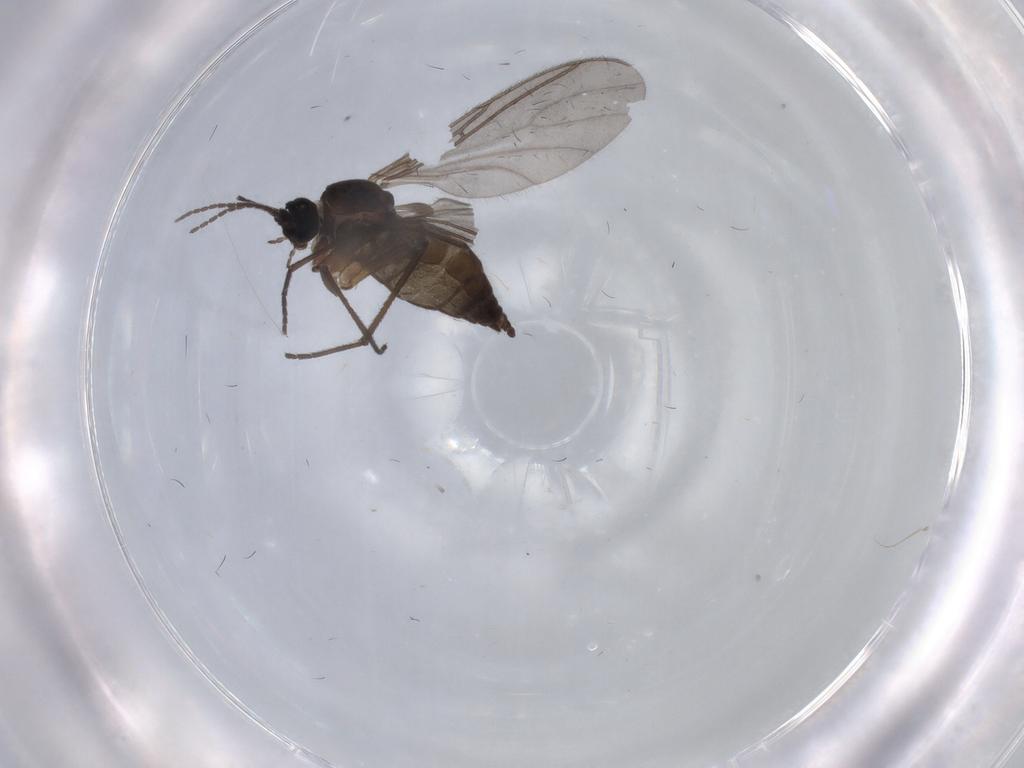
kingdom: Animalia
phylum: Arthropoda
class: Insecta
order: Diptera
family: Sciaridae
